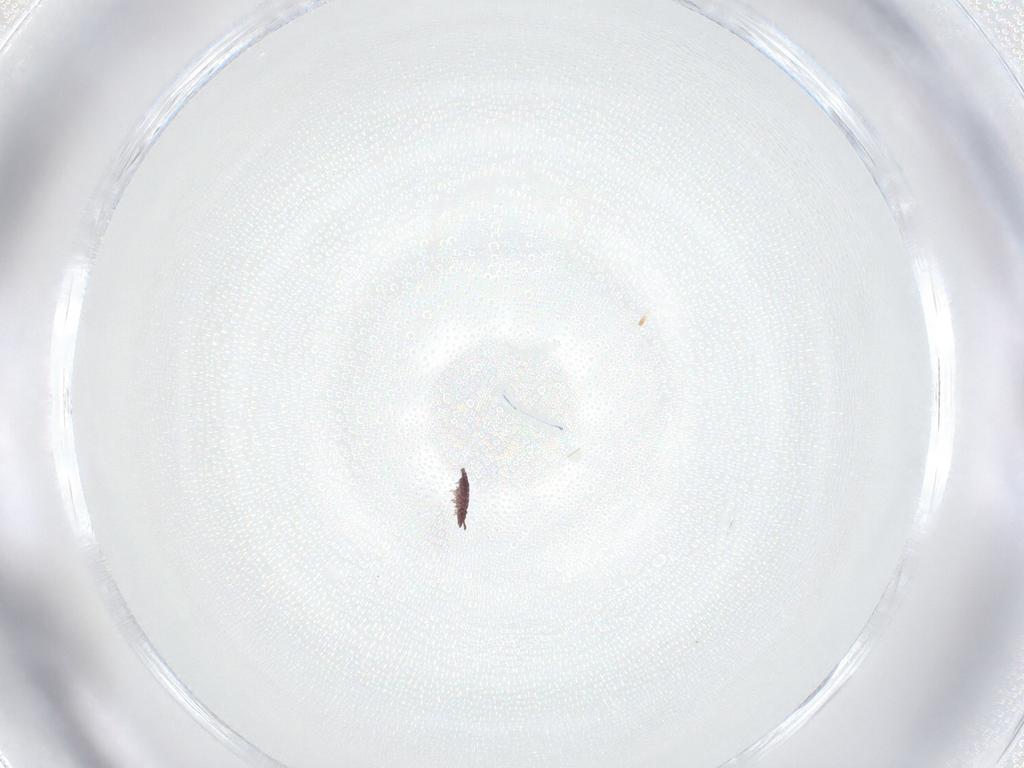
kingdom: Animalia
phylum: Arthropoda
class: Collembola
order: Poduromorpha
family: Hypogastruridae
